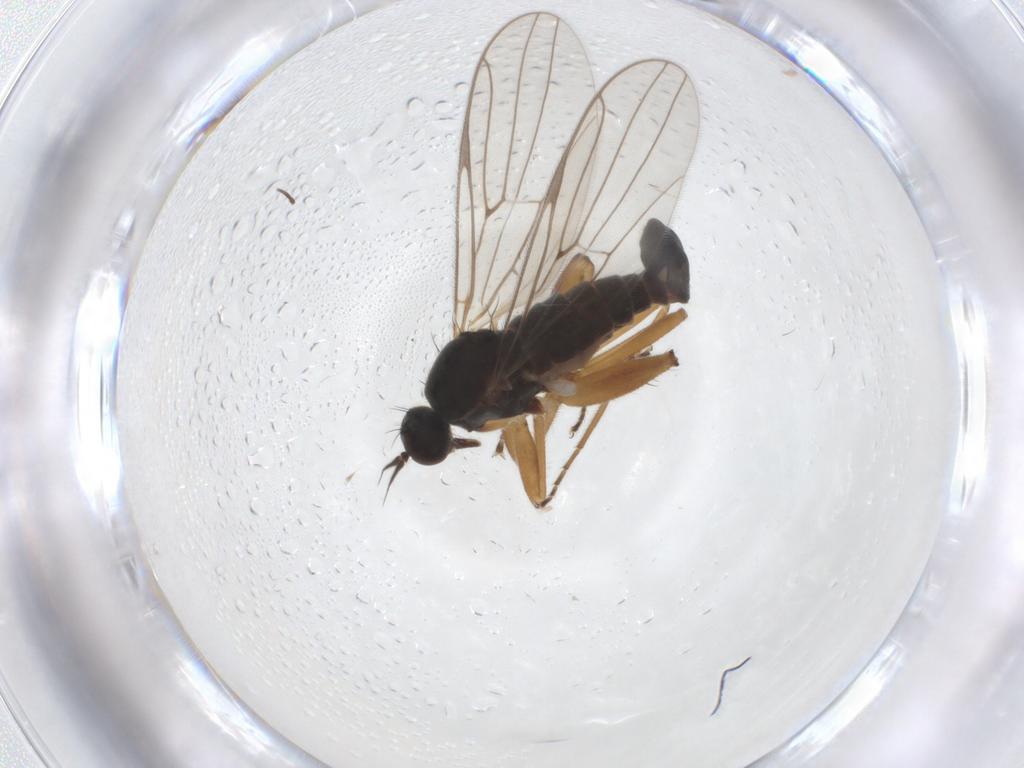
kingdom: Animalia
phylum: Arthropoda
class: Insecta
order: Diptera
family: Hybotidae
